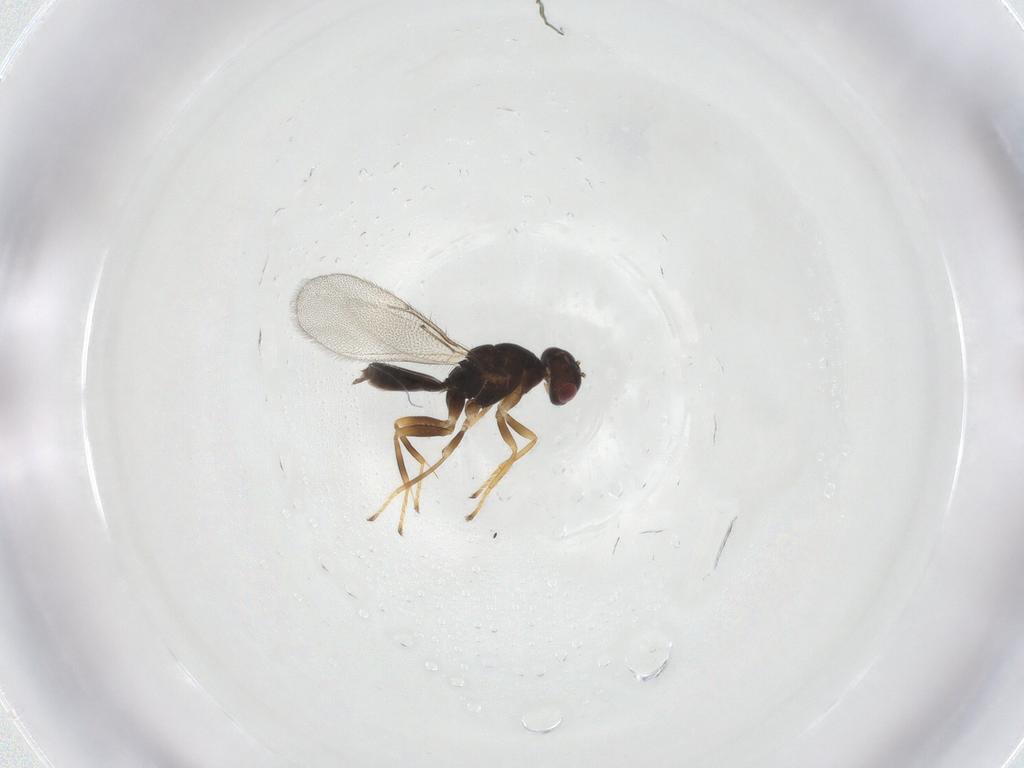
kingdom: Animalia
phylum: Arthropoda
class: Insecta
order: Hymenoptera
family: Eulophidae
